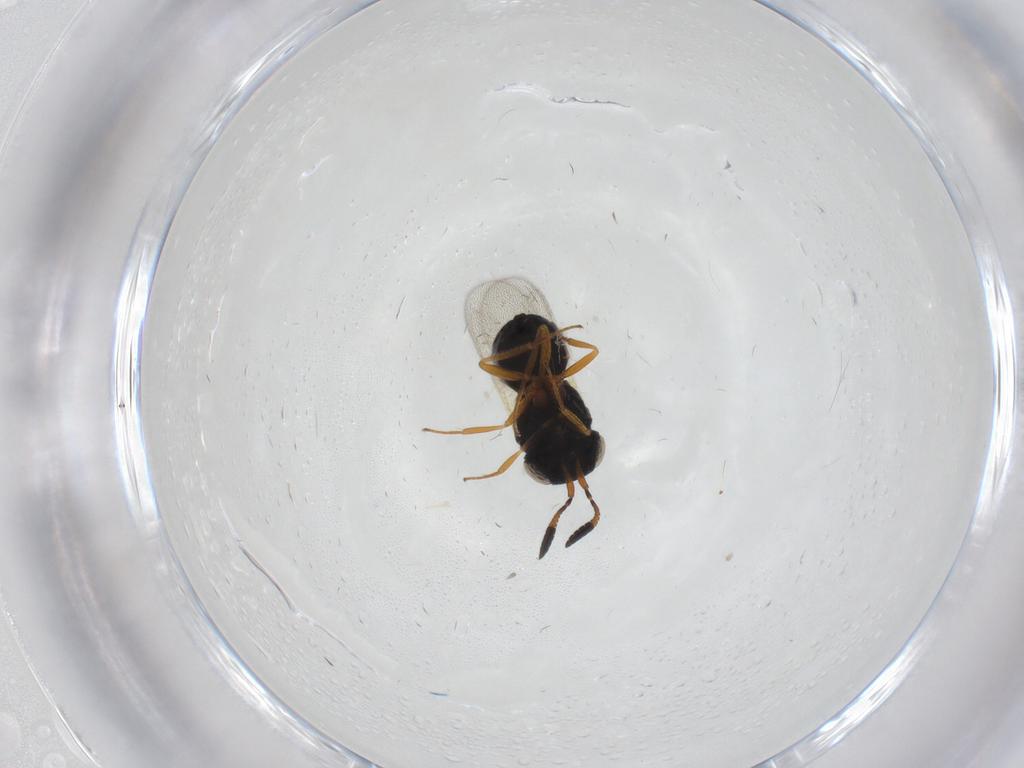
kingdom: Animalia
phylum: Arthropoda
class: Insecta
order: Hymenoptera
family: Scelionidae
